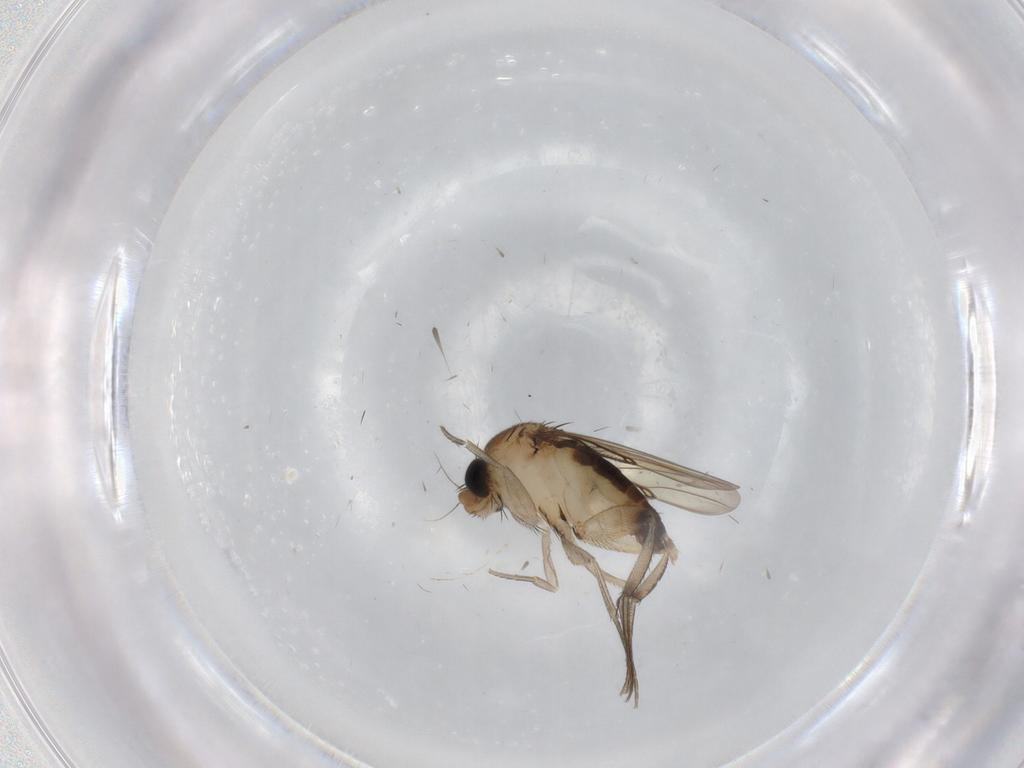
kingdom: Animalia
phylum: Arthropoda
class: Insecta
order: Diptera
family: Phoridae
